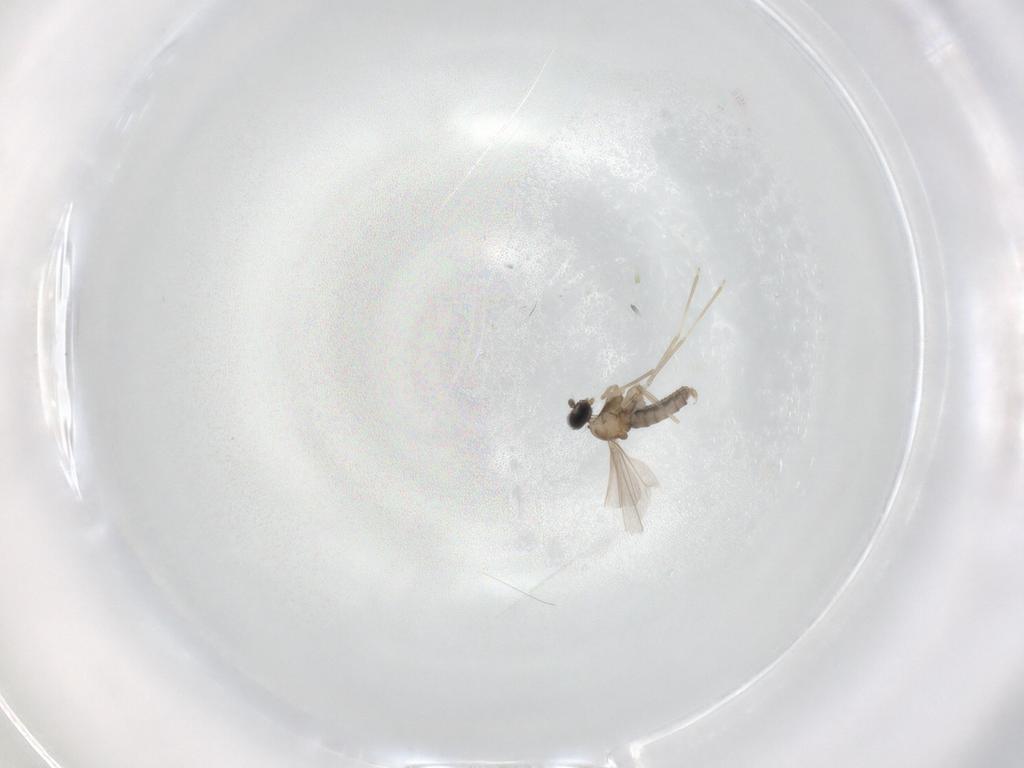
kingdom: Animalia
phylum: Arthropoda
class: Insecta
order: Diptera
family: Cecidomyiidae
